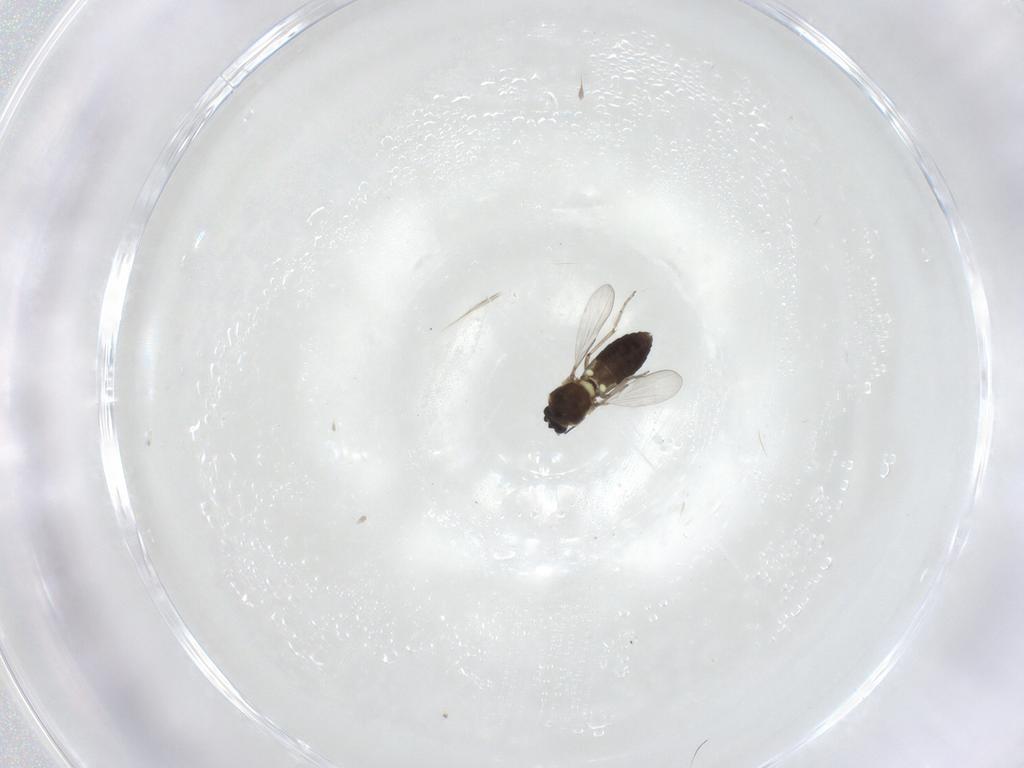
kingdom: Animalia
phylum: Arthropoda
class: Insecta
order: Diptera
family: Ceratopogonidae
